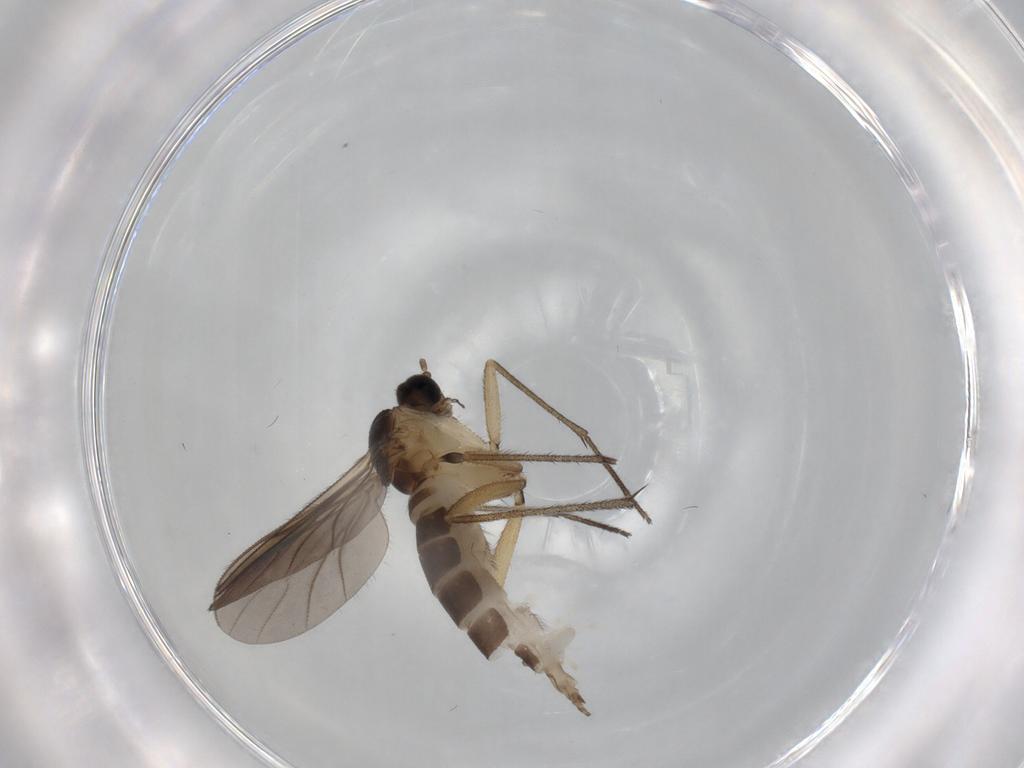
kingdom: Animalia
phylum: Arthropoda
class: Insecta
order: Diptera
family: Sciaridae
